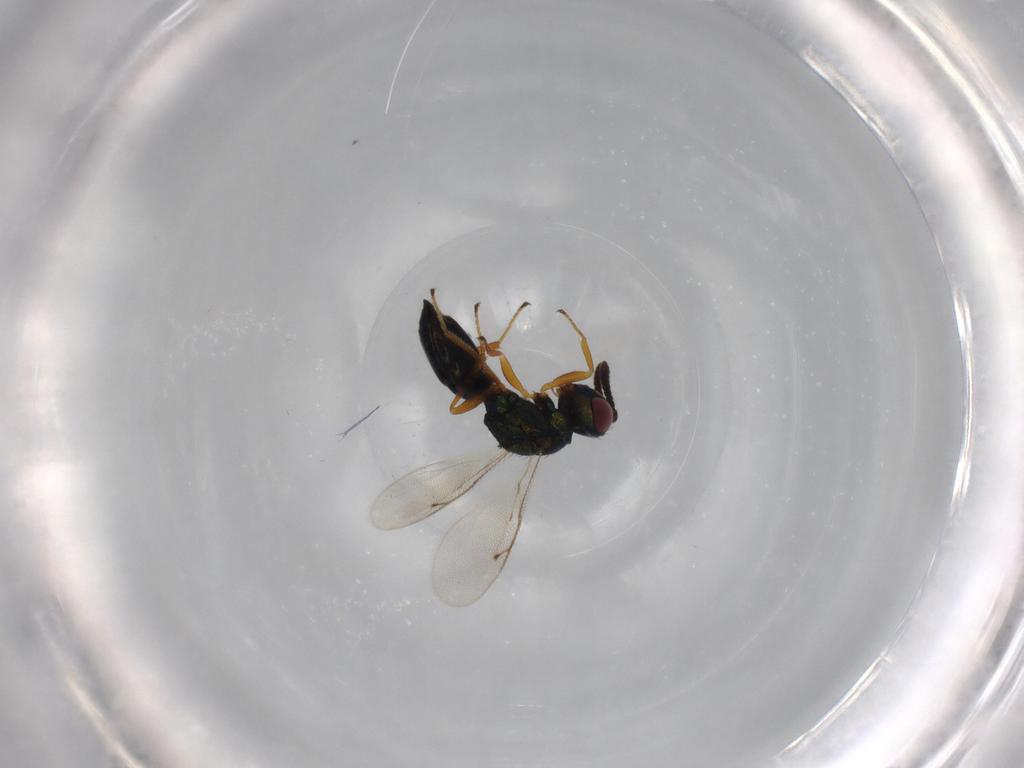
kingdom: Animalia
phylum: Arthropoda
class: Insecta
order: Hymenoptera
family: Pteromalidae
